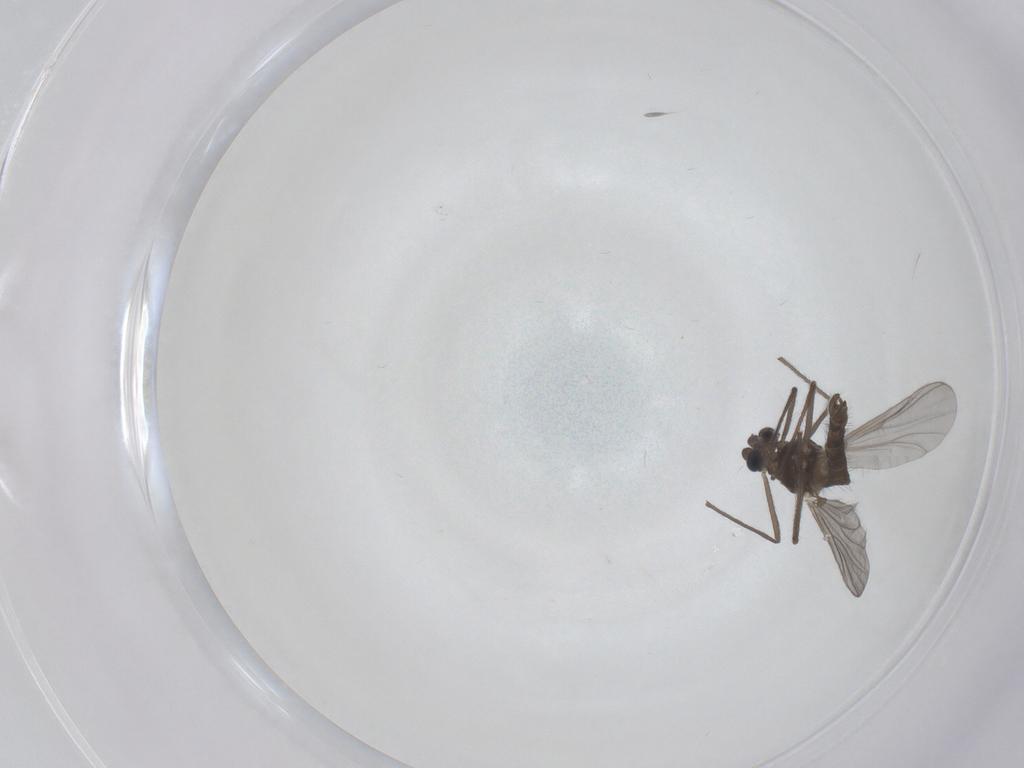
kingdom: Animalia
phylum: Arthropoda
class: Insecta
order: Diptera
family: Chironomidae
